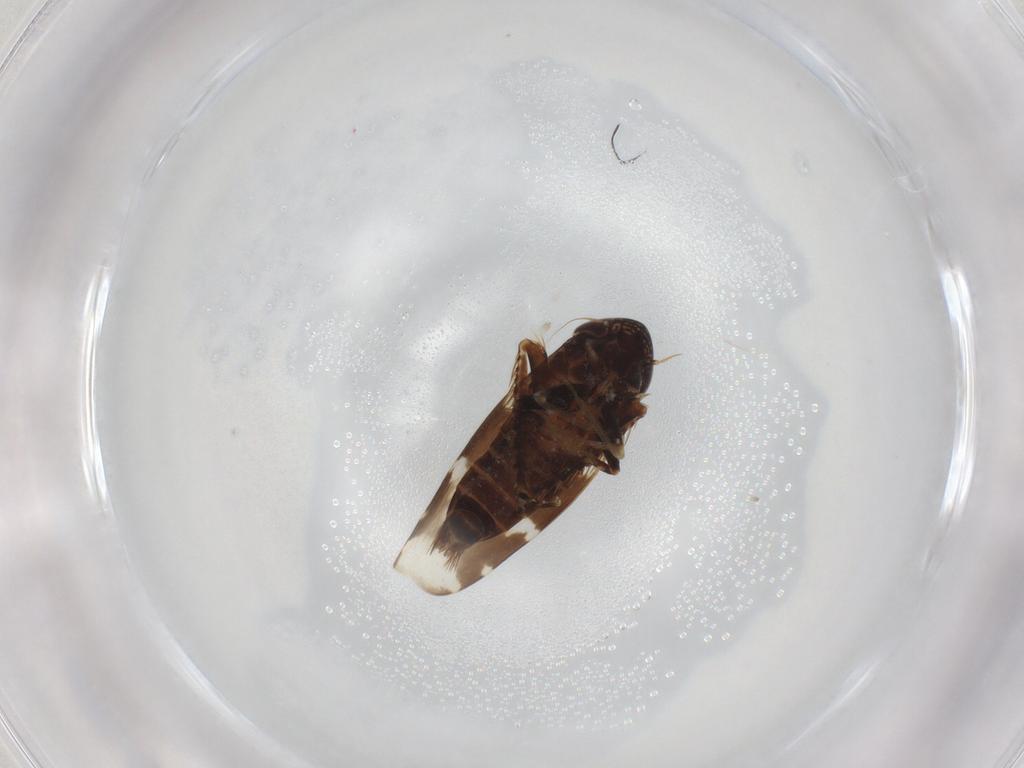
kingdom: Animalia
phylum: Arthropoda
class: Insecta
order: Hemiptera
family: Cicadellidae
